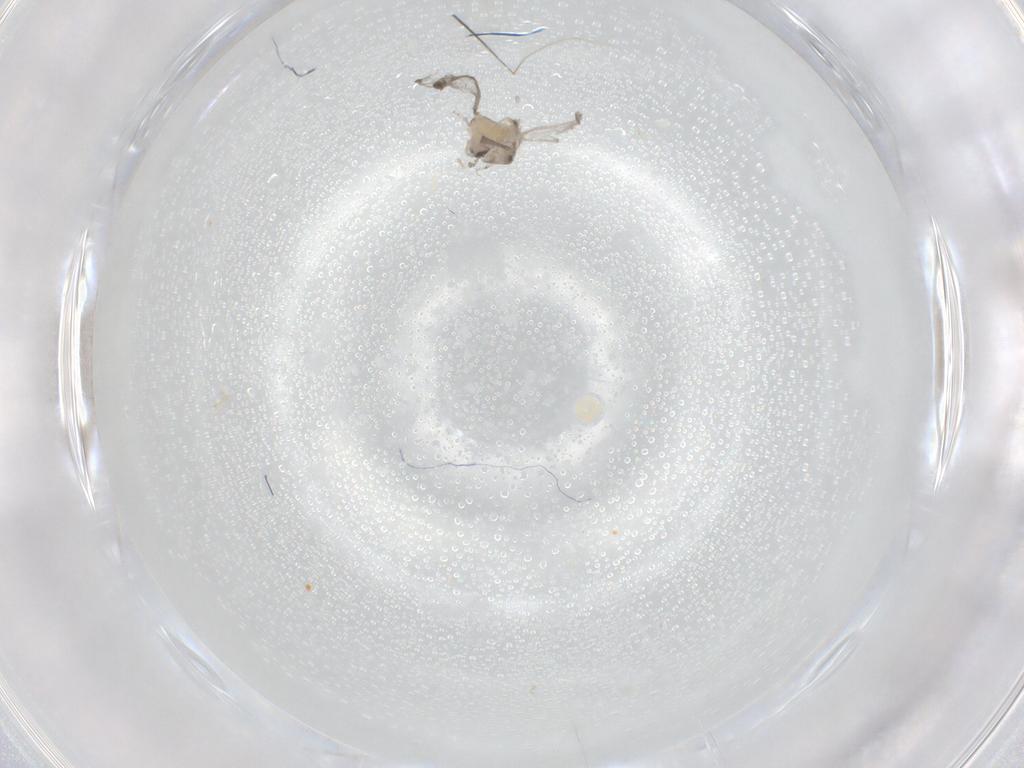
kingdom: Animalia
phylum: Arthropoda
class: Insecta
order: Diptera
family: Cecidomyiidae
